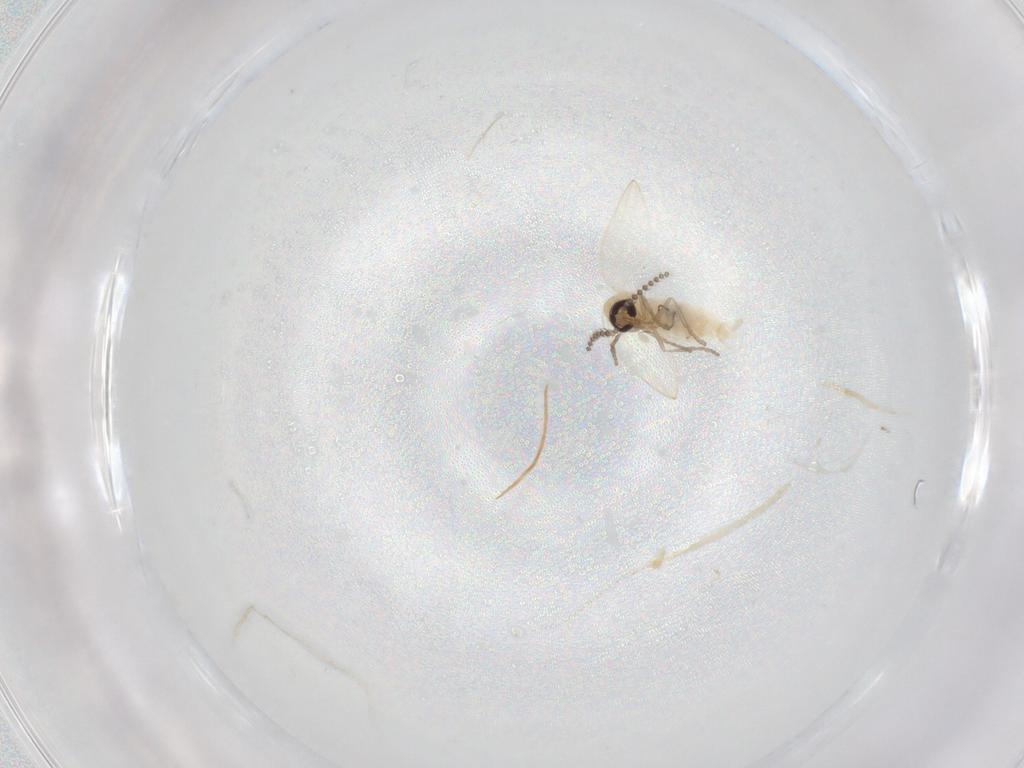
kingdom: Animalia
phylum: Arthropoda
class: Insecta
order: Diptera
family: Psychodidae
